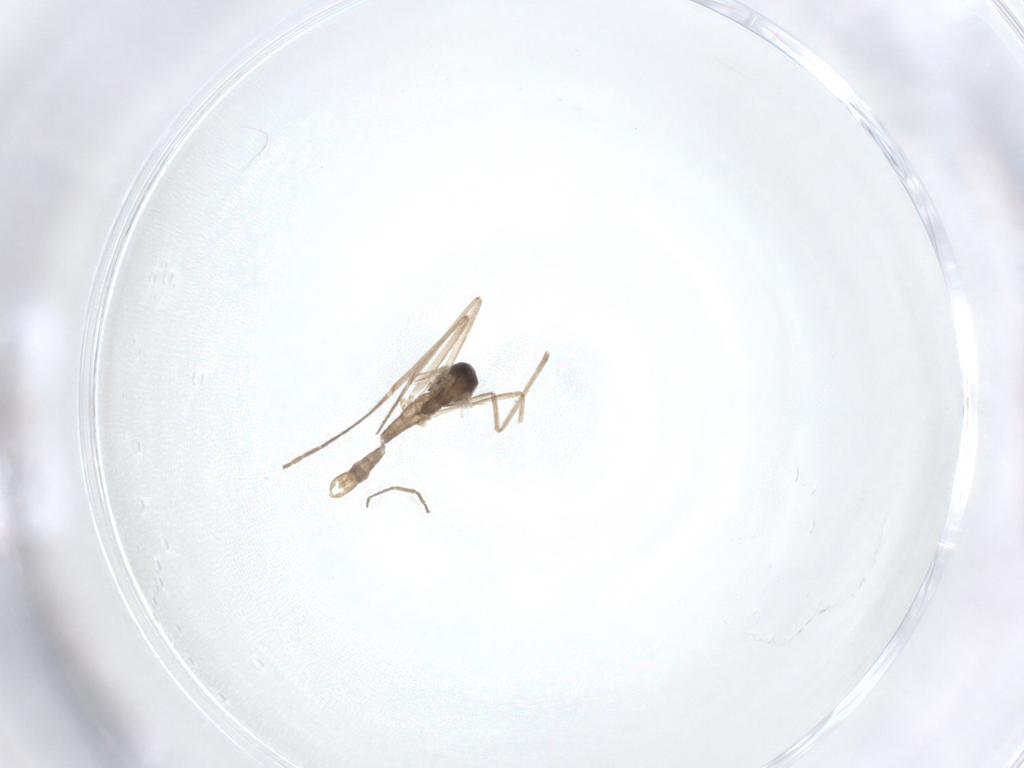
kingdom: Animalia
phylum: Arthropoda
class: Insecta
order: Diptera
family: Cecidomyiidae
